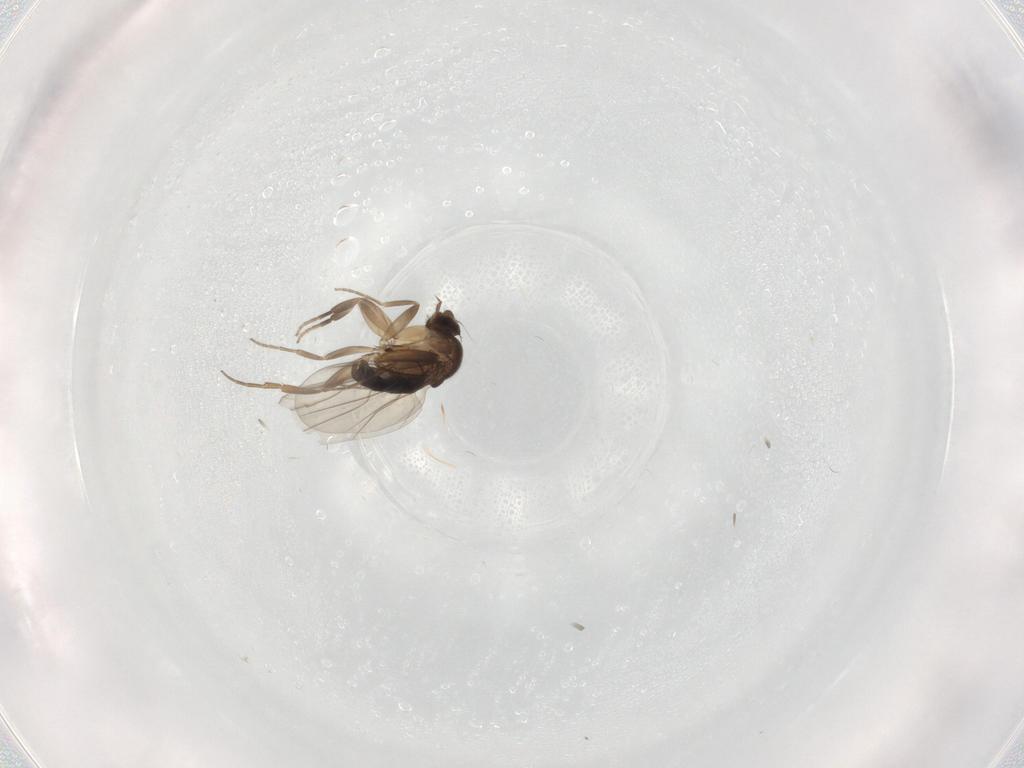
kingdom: Animalia
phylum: Arthropoda
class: Insecta
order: Diptera
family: Phoridae
